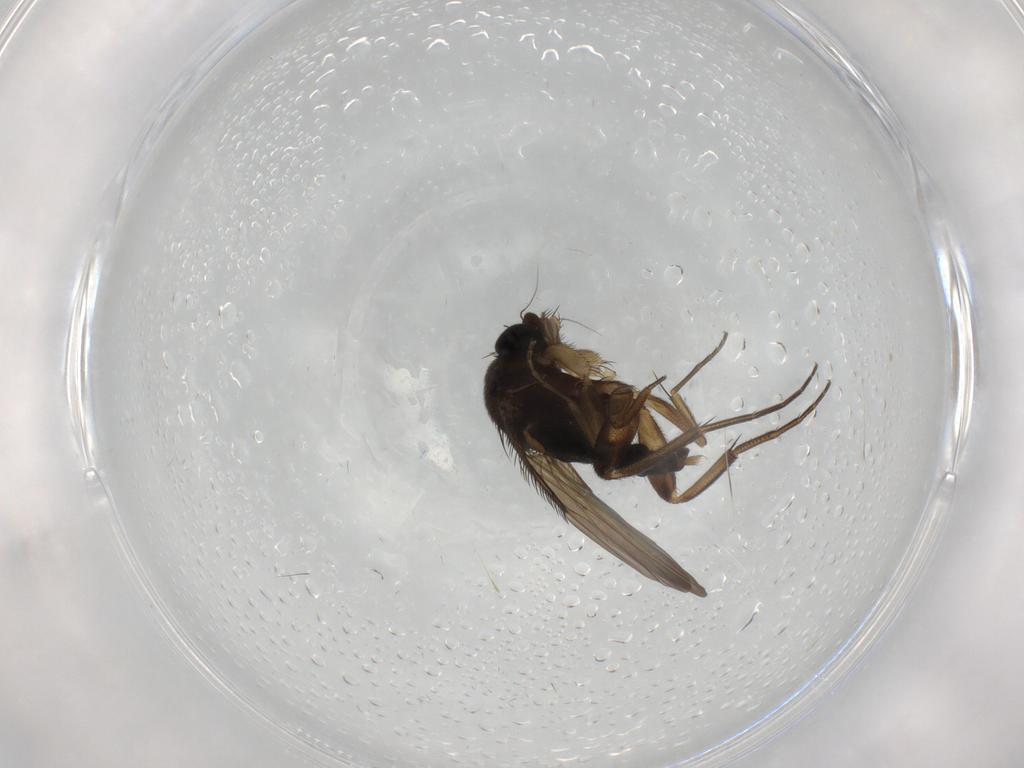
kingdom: Animalia
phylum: Arthropoda
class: Insecta
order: Diptera
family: Phoridae
